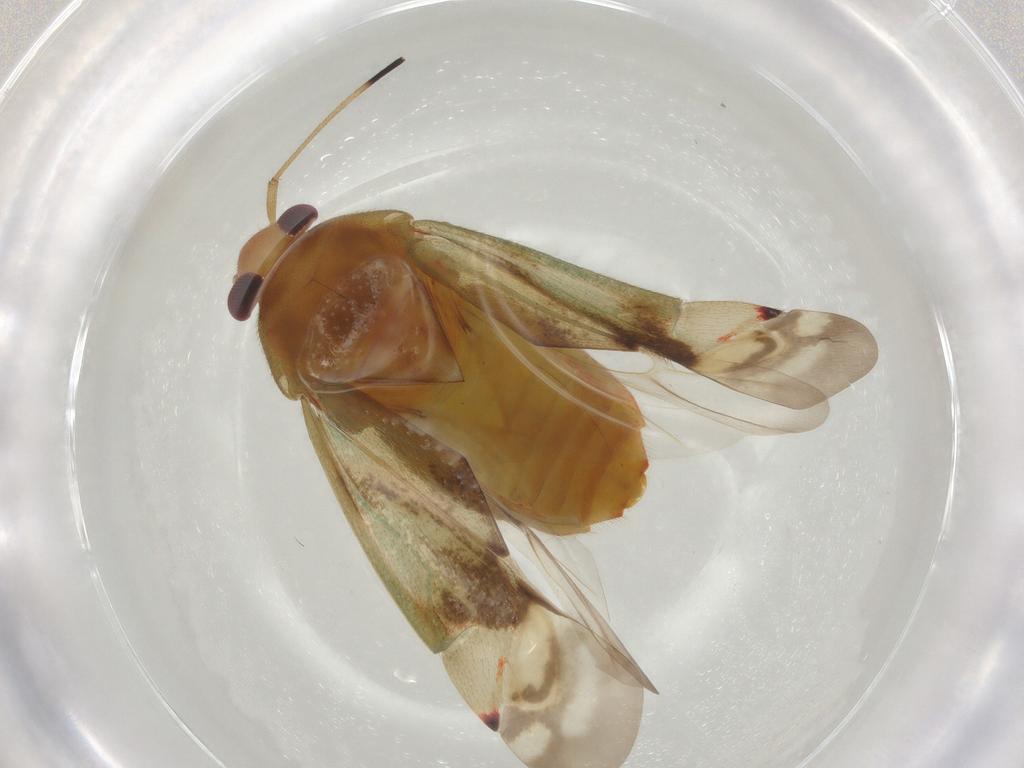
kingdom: Animalia
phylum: Arthropoda
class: Insecta
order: Hemiptera
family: Miridae
